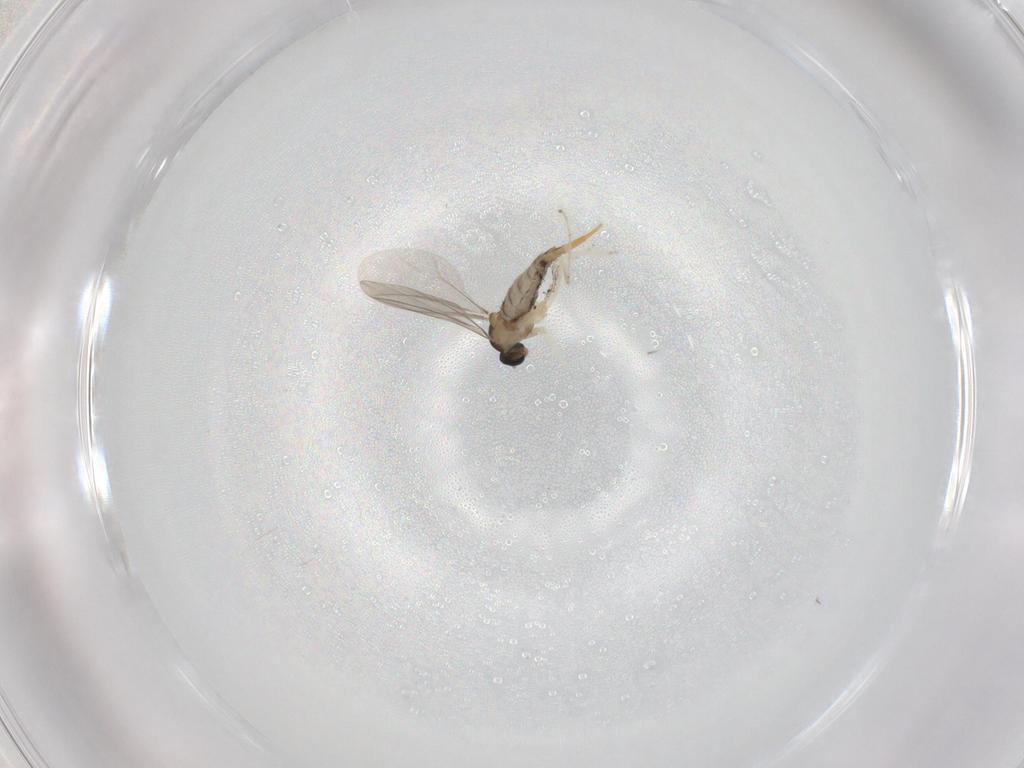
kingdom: Animalia
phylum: Arthropoda
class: Insecta
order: Diptera
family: Cecidomyiidae
